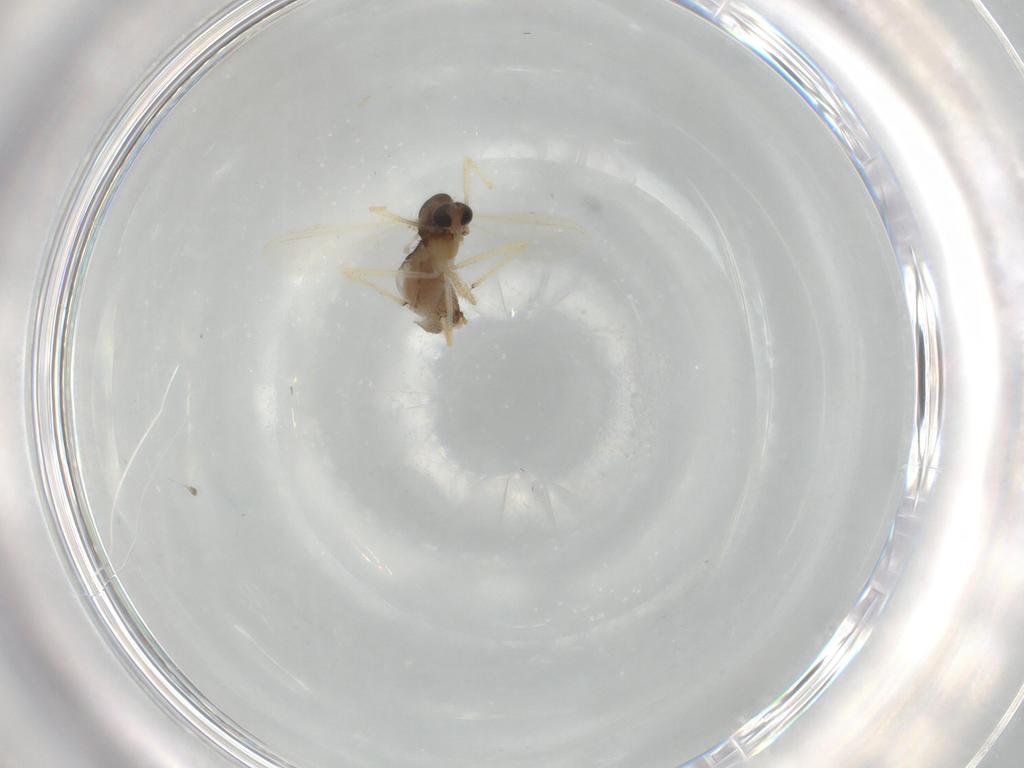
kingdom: Animalia
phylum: Arthropoda
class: Insecta
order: Diptera
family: Chironomidae
